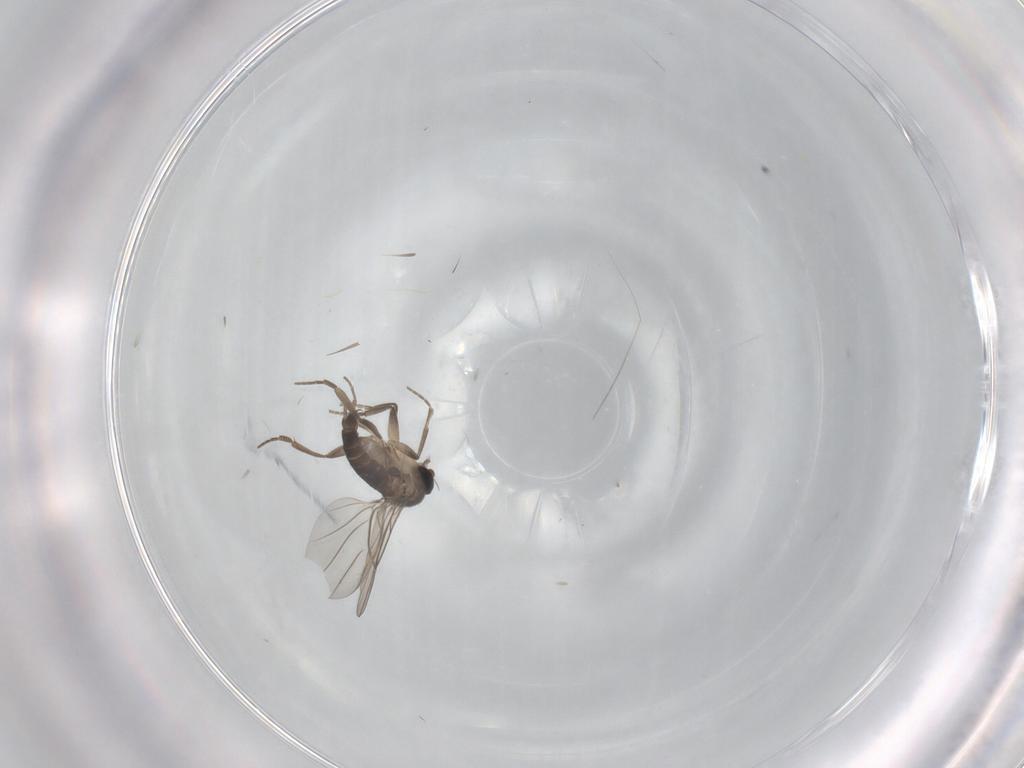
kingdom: Animalia
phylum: Arthropoda
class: Insecta
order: Diptera
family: Phoridae
